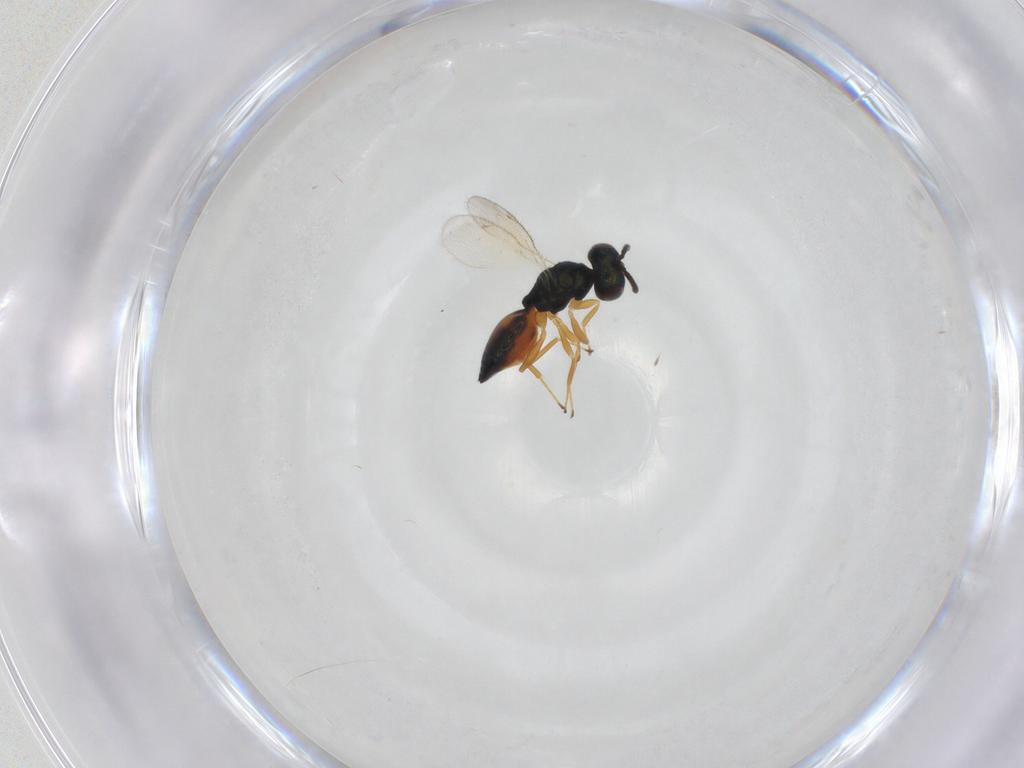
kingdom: Animalia
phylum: Arthropoda
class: Insecta
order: Hymenoptera
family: Pteromalidae
